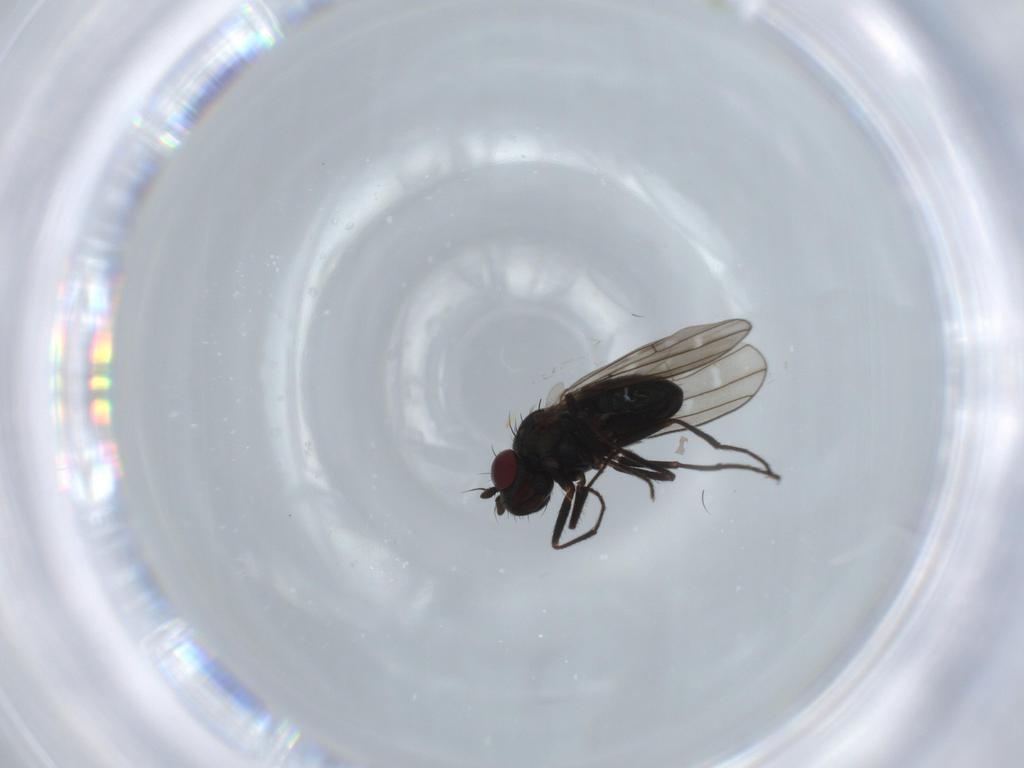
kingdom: Animalia
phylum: Arthropoda
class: Insecta
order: Diptera
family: Ephydridae
